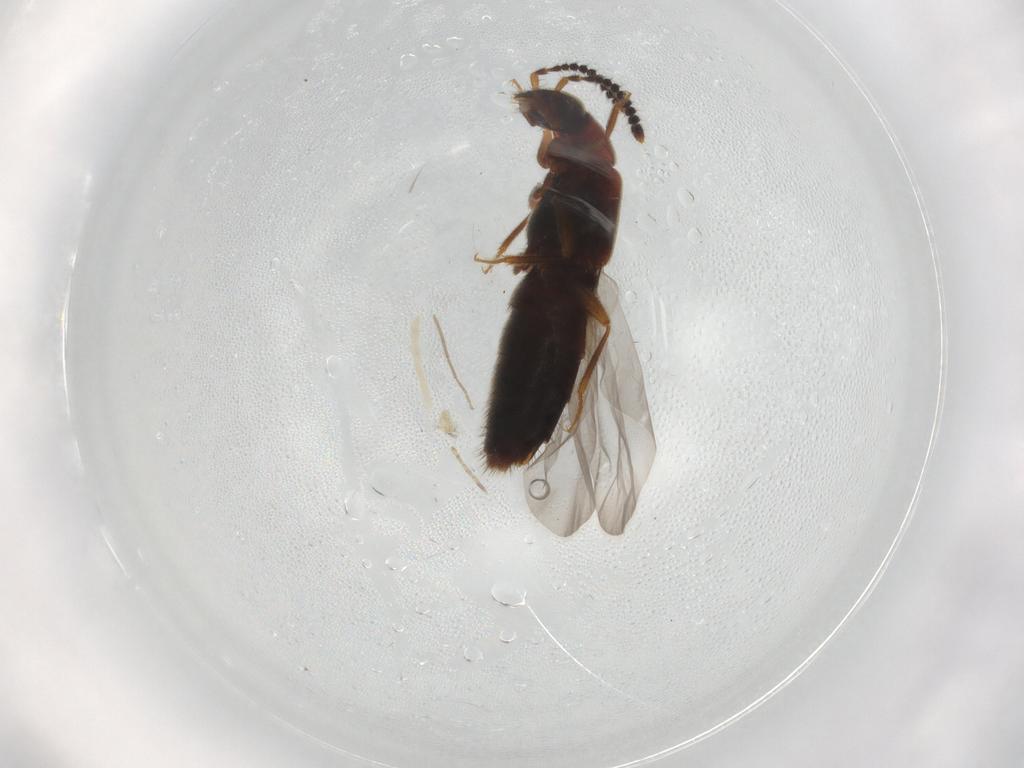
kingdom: Animalia
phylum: Arthropoda
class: Insecta
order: Coleoptera
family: Staphylinidae
